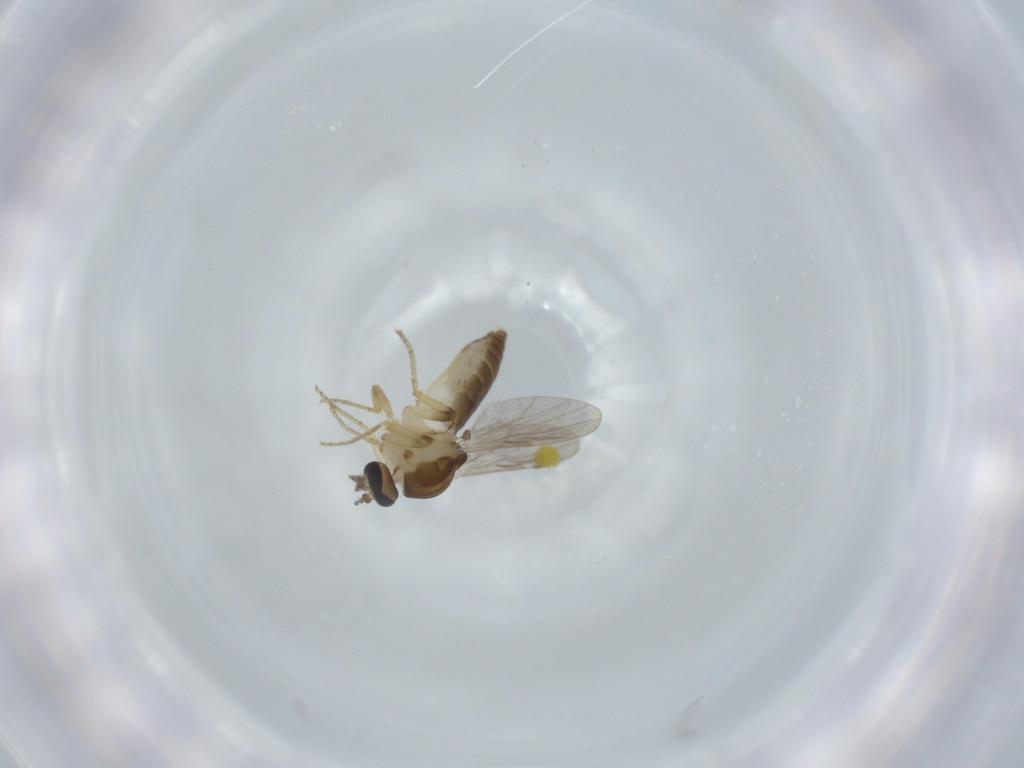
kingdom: Animalia
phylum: Arthropoda
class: Insecta
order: Diptera
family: Ceratopogonidae
